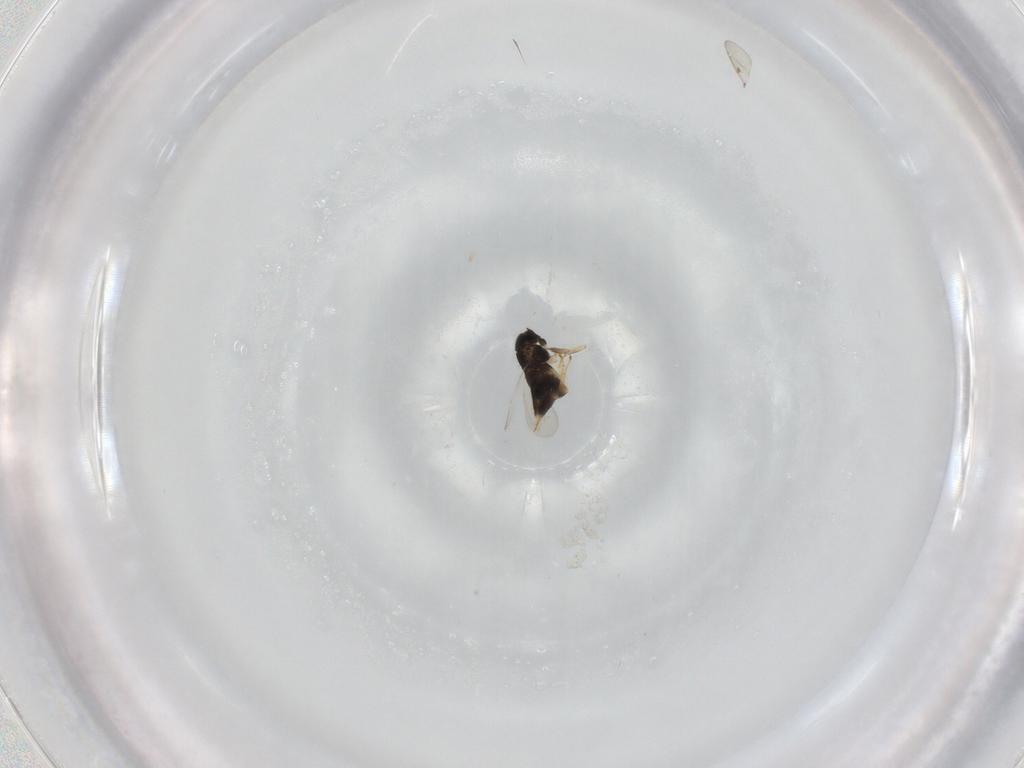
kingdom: Animalia
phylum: Arthropoda
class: Insecta
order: Hymenoptera
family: Aphelinidae
